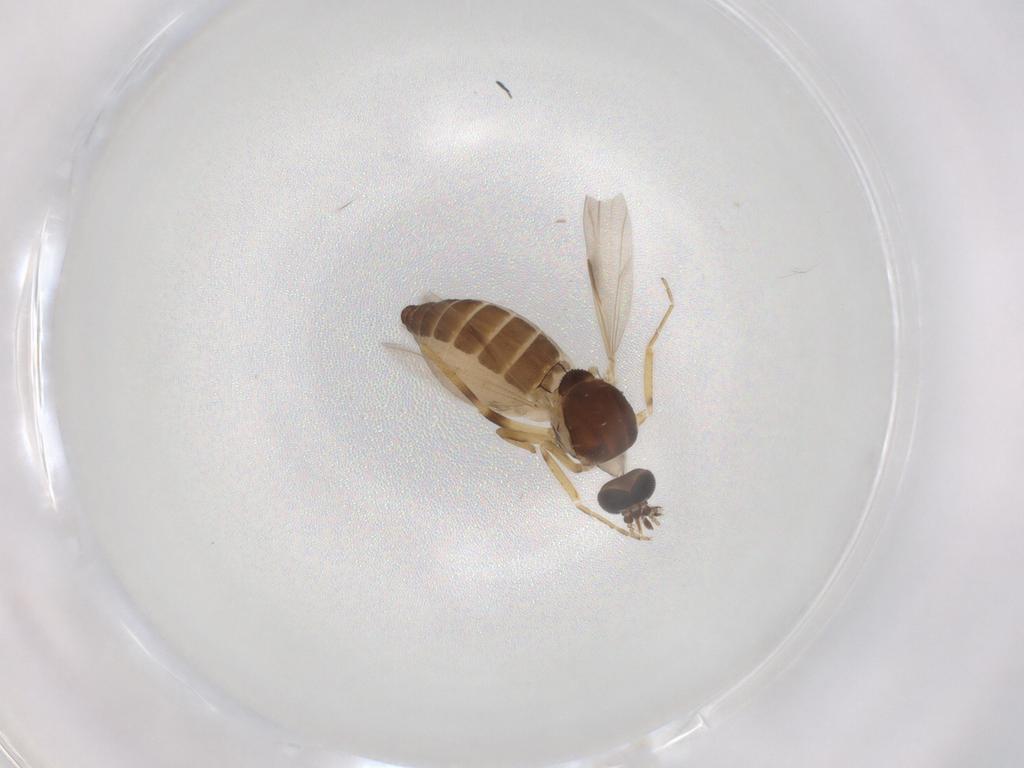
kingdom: Animalia
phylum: Arthropoda
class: Insecta
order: Diptera
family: Ceratopogonidae
